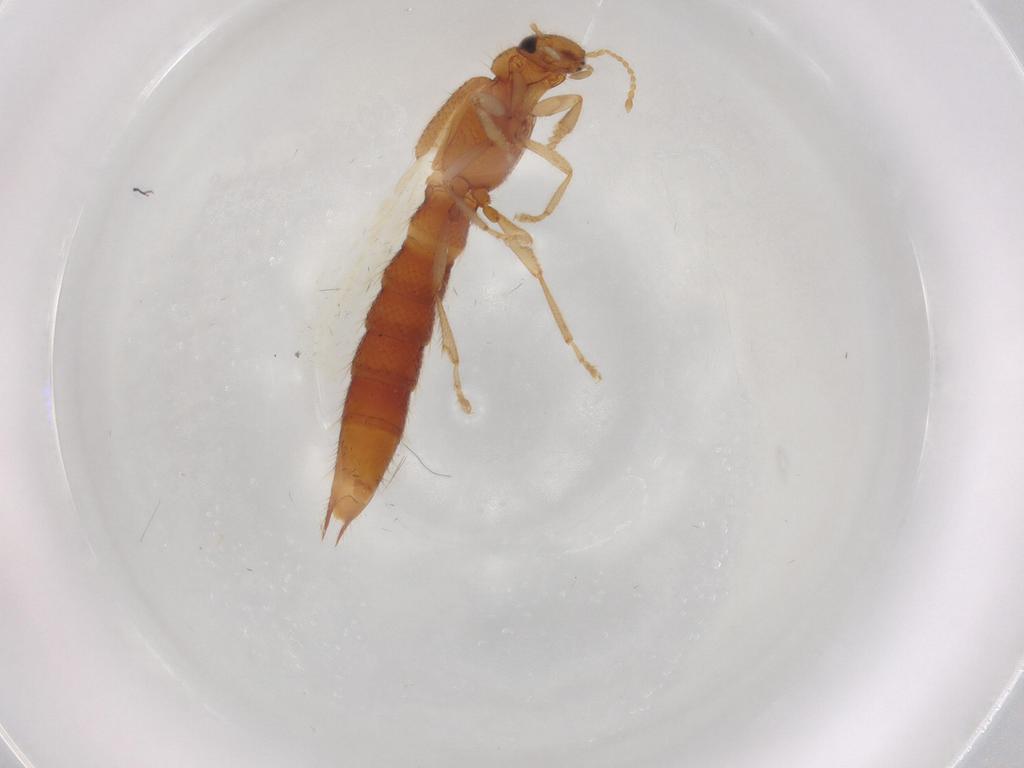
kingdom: Animalia
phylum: Arthropoda
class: Insecta
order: Coleoptera
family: Staphylinidae
